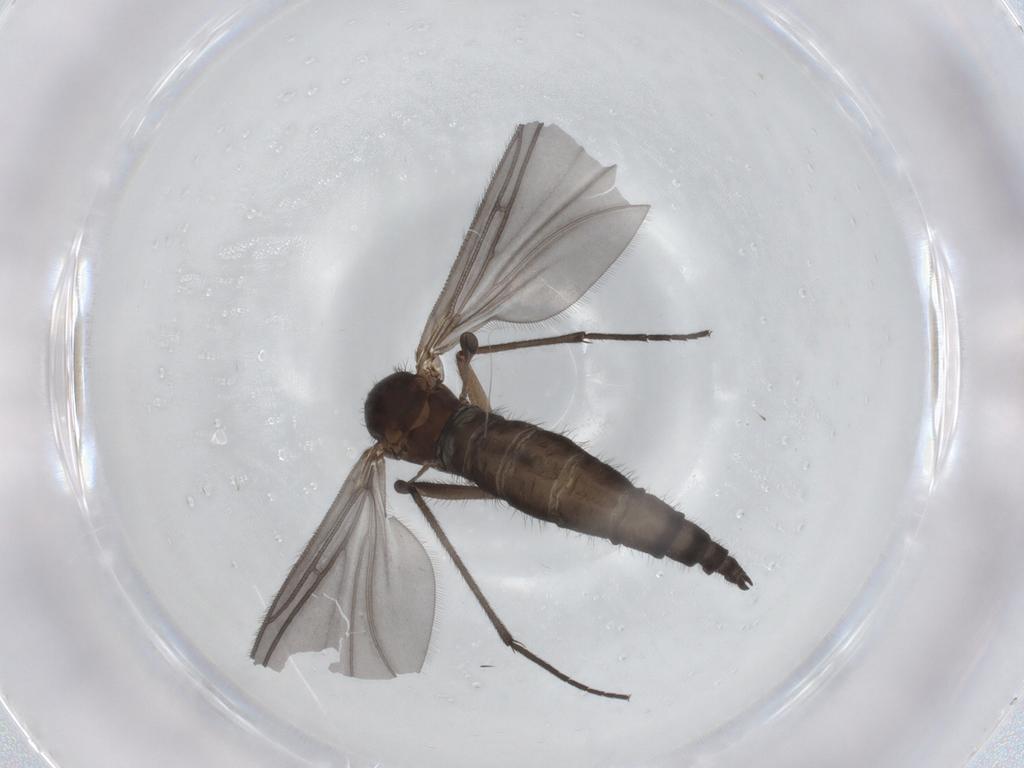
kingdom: Animalia
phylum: Arthropoda
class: Insecta
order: Diptera
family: Sciaridae
